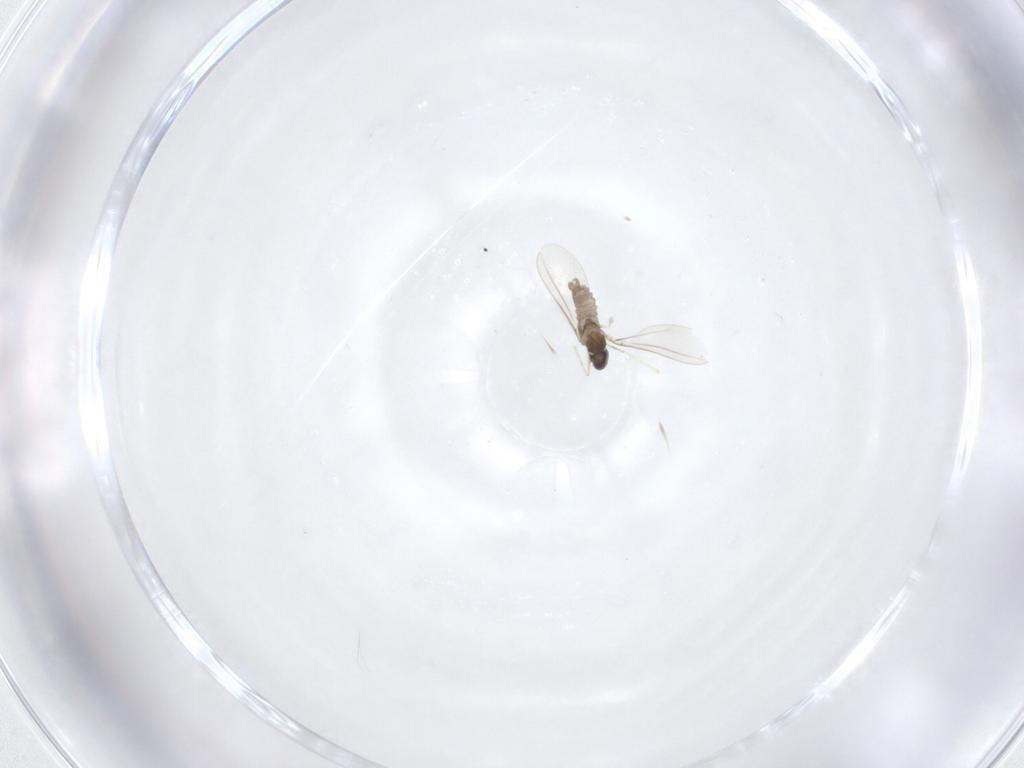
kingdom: Animalia
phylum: Arthropoda
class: Insecta
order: Diptera
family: Cecidomyiidae
